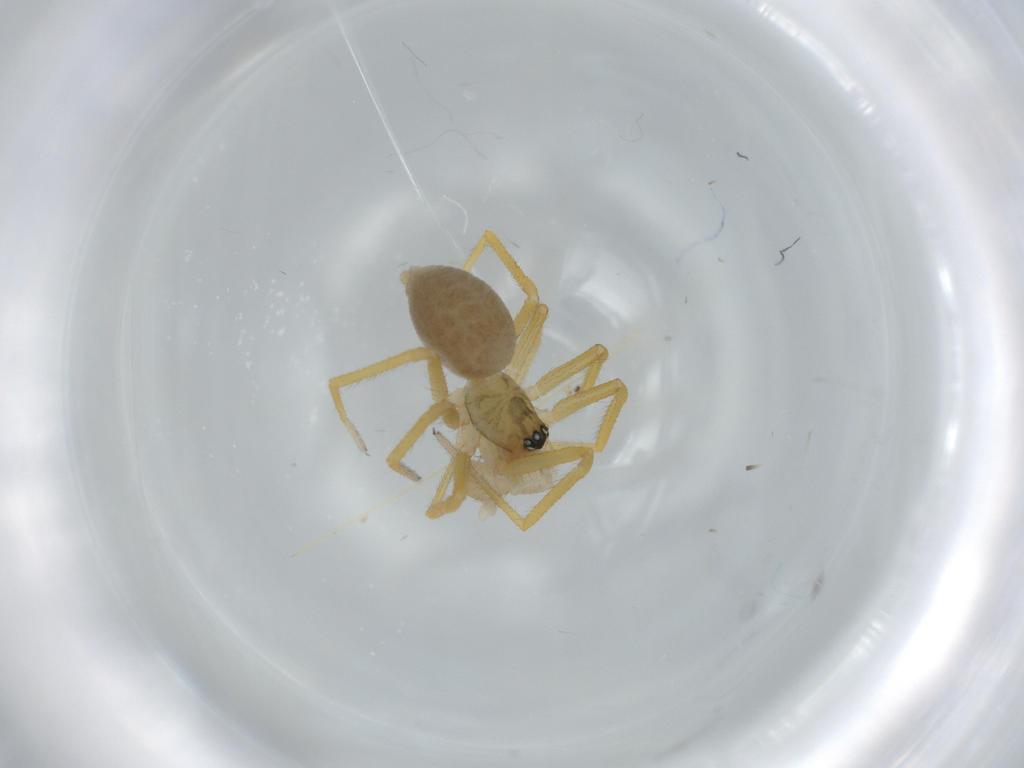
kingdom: Animalia
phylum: Arthropoda
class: Arachnida
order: Araneae
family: Linyphiidae
